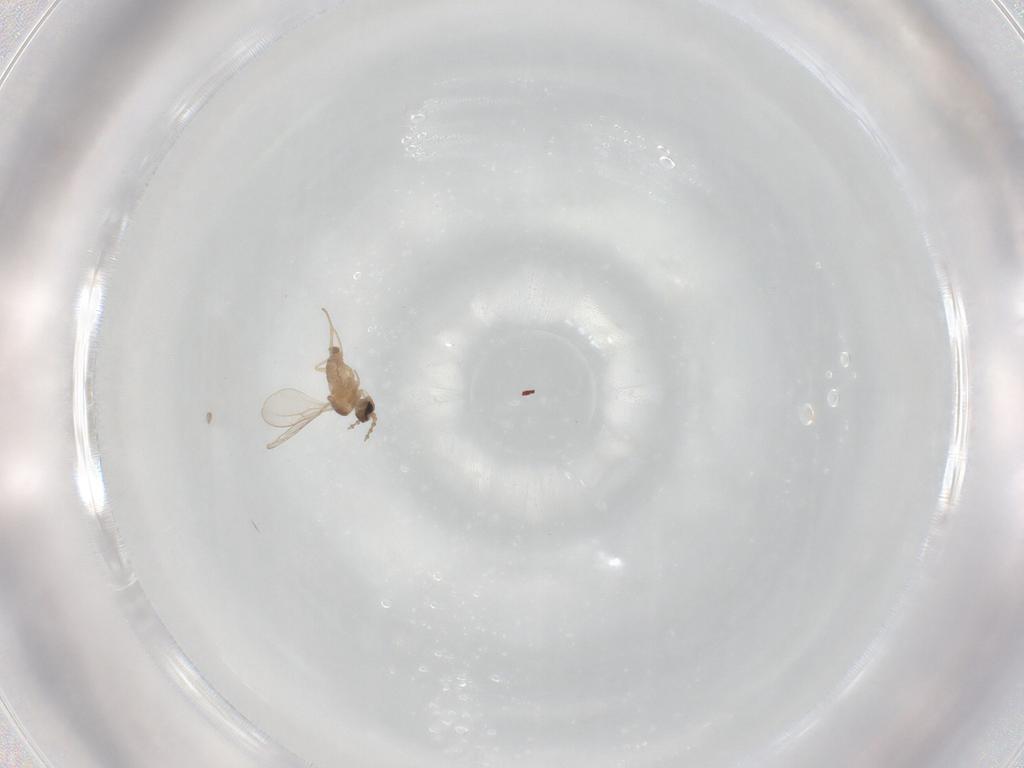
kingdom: Animalia
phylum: Arthropoda
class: Insecta
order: Diptera
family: Cecidomyiidae
